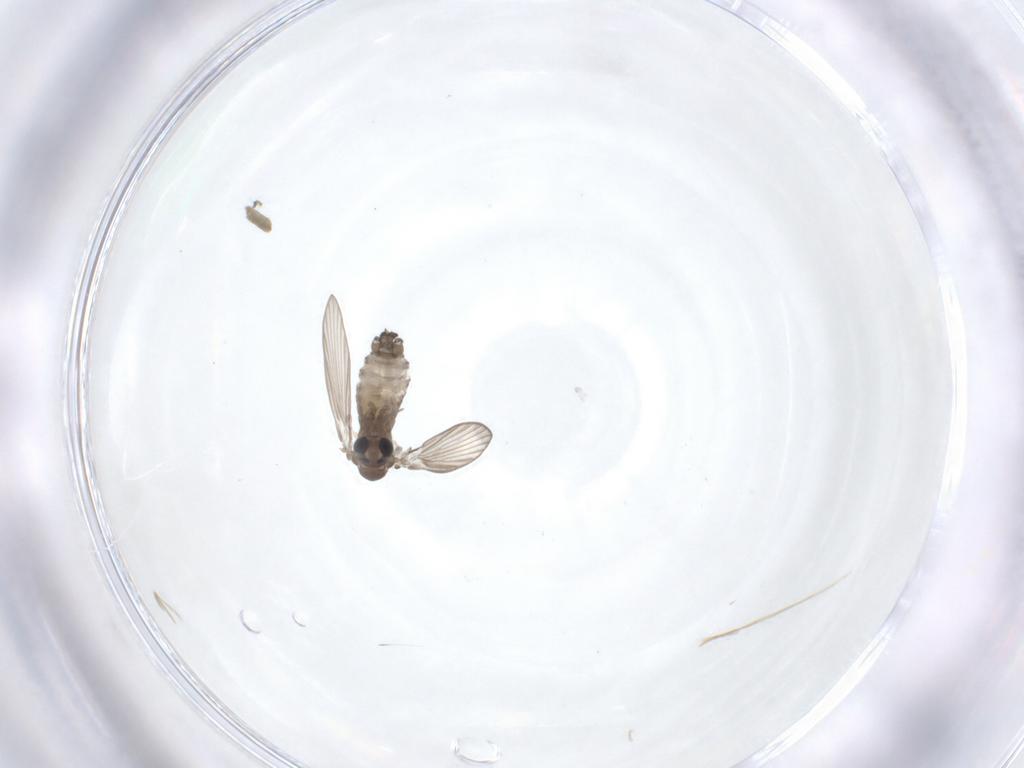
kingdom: Animalia
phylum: Arthropoda
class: Insecta
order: Diptera
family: Psychodidae
